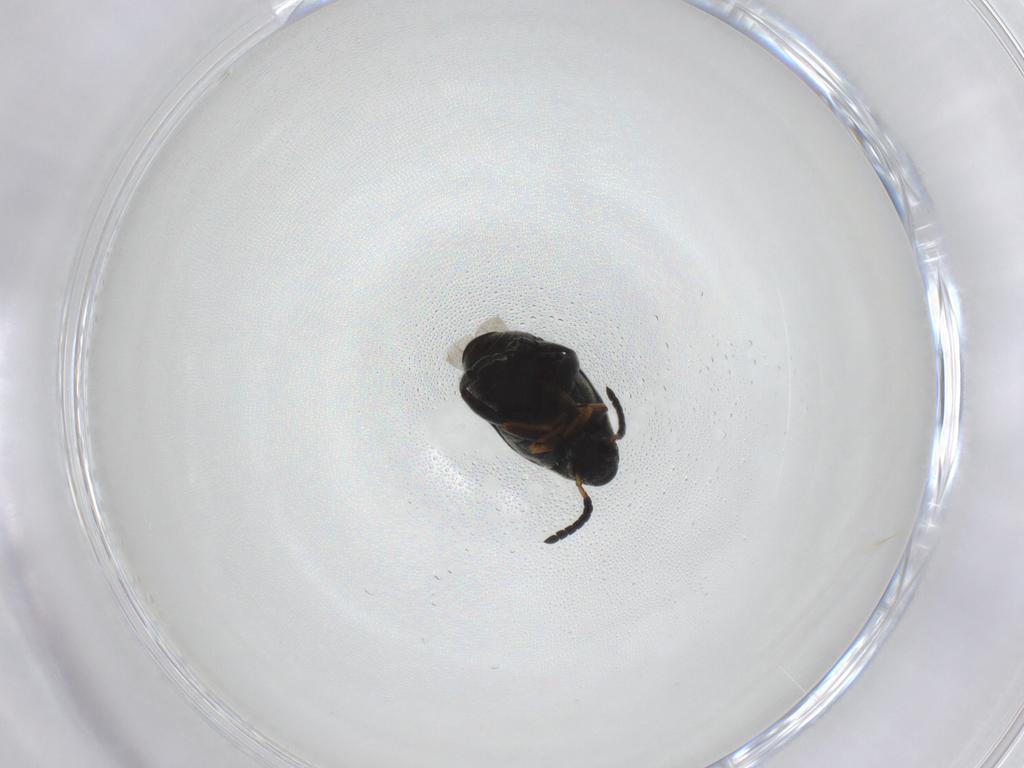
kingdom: Animalia
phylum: Arthropoda
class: Insecta
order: Coleoptera
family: Chrysomelidae
